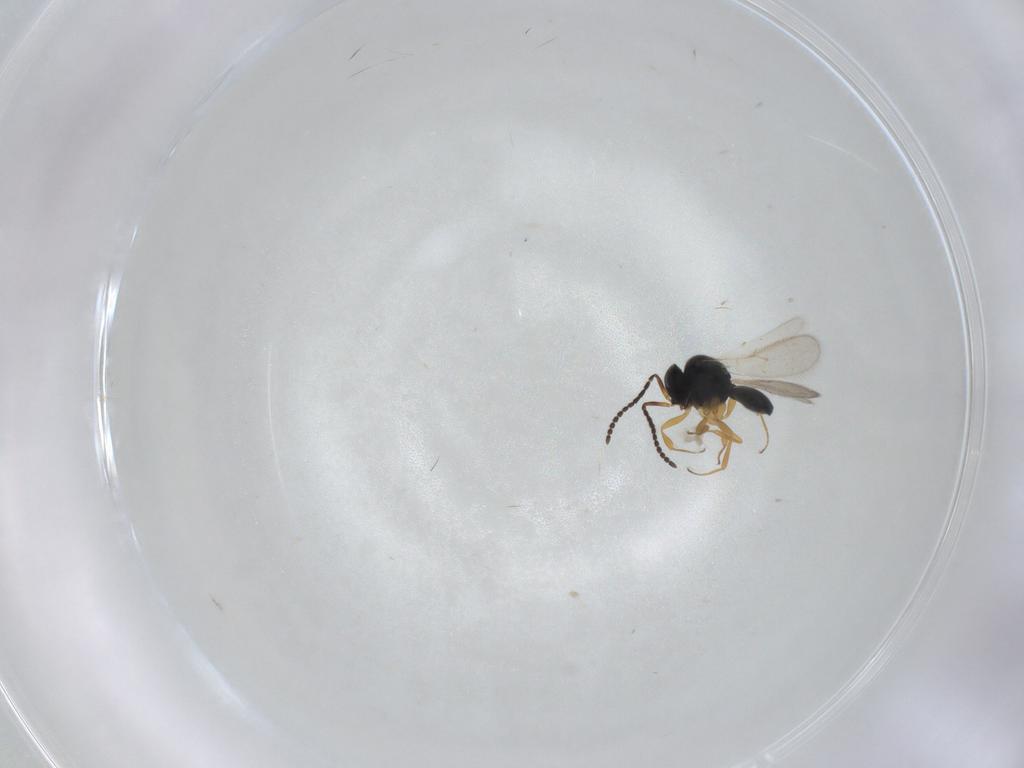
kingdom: Animalia
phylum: Arthropoda
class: Insecta
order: Hymenoptera
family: Scelionidae
